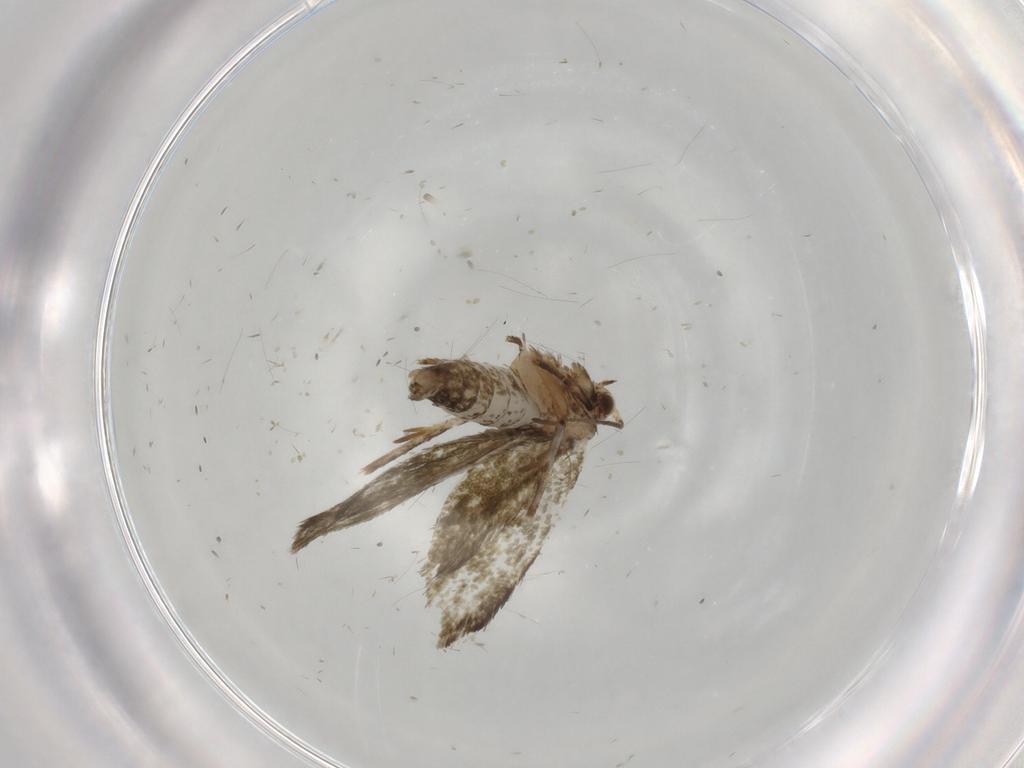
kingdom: Animalia
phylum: Arthropoda
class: Insecta
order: Lepidoptera
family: Tineidae
